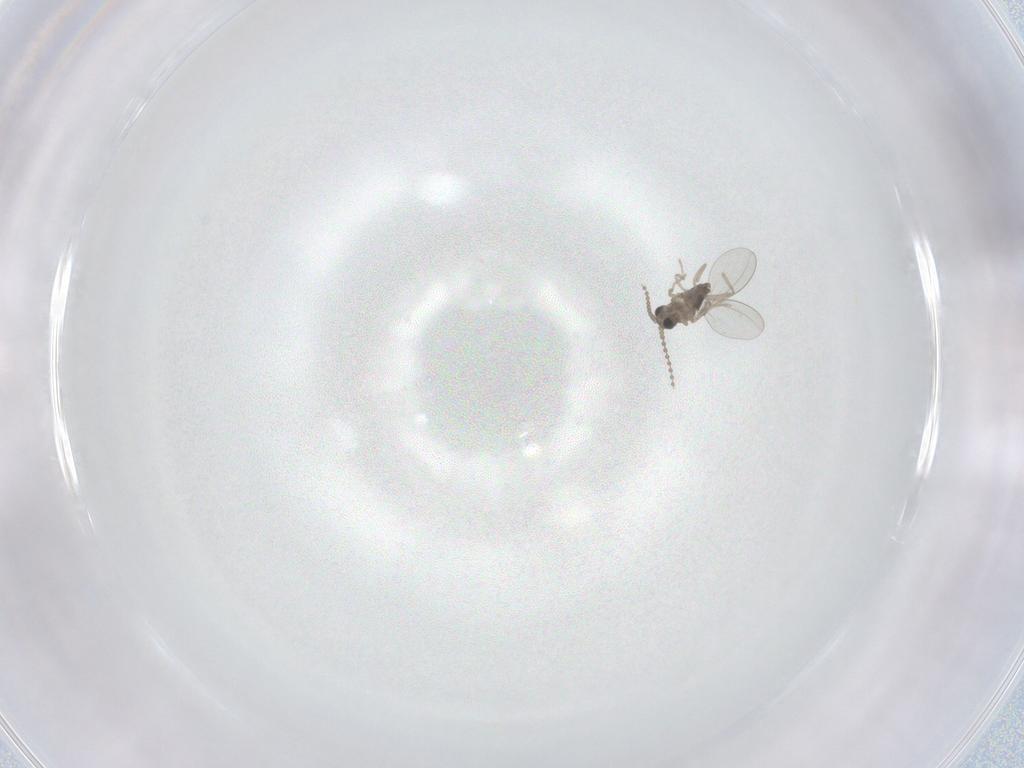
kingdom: Animalia
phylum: Arthropoda
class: Insecta
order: Diptera
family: Cecidomyiidae
